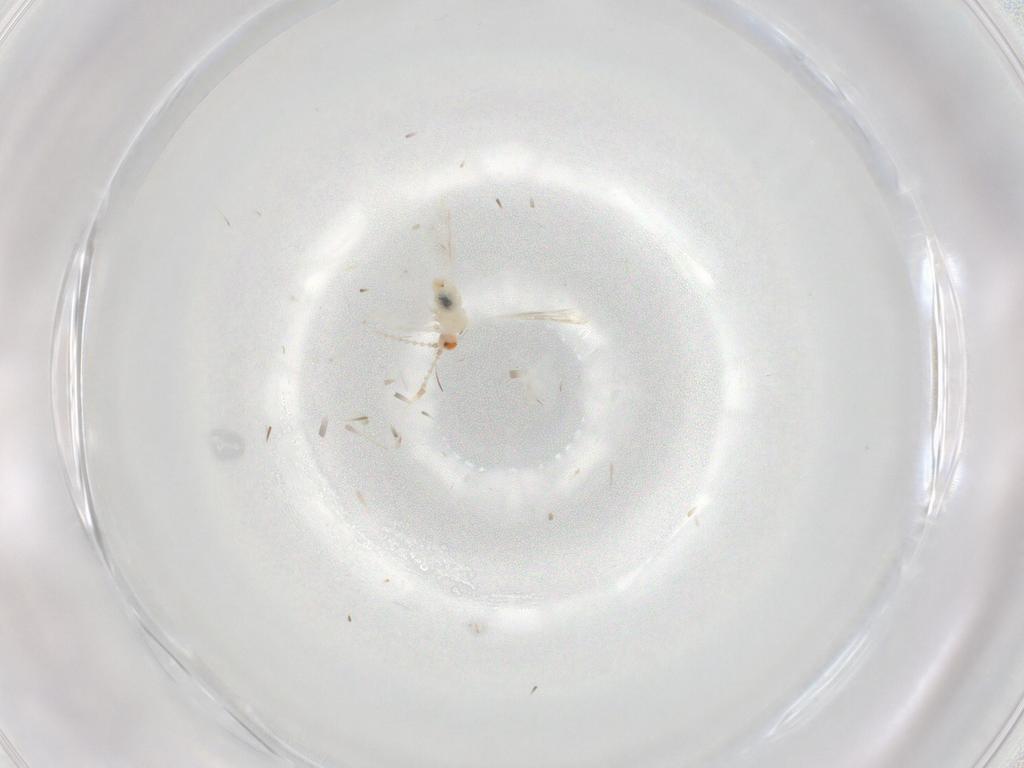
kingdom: Animalia
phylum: Arthropoda
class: Insecta
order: Diptera
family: Sciaridae
